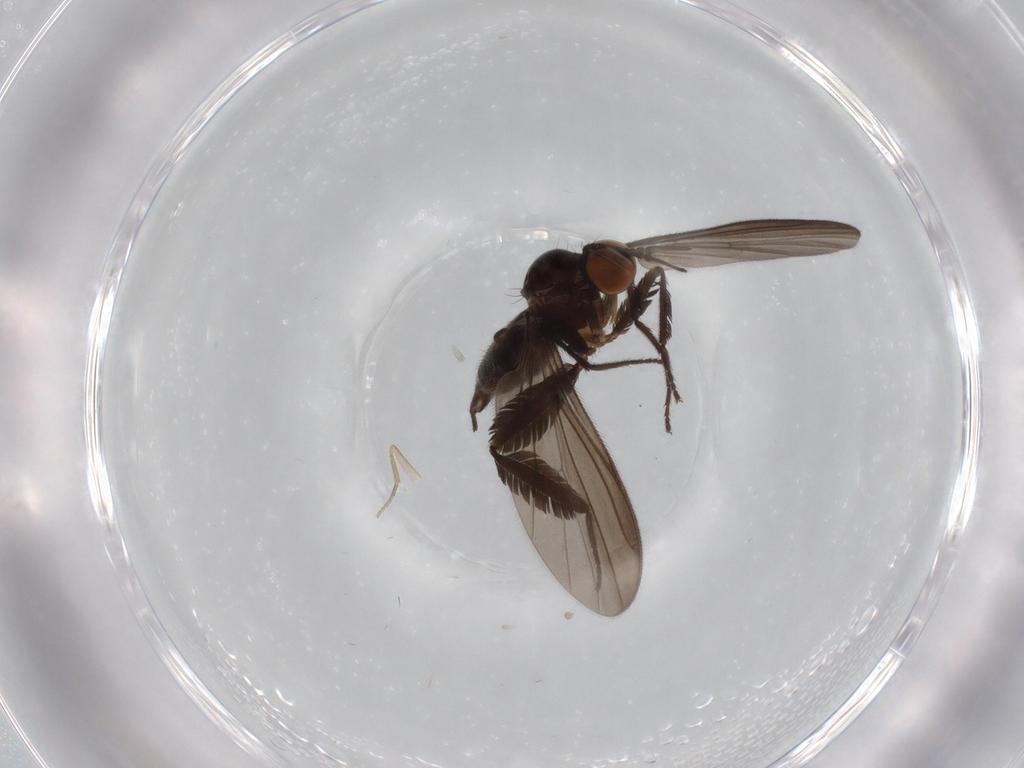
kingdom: Animalia
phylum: Arthropoda
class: Insecta
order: Diptera
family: Empididae
